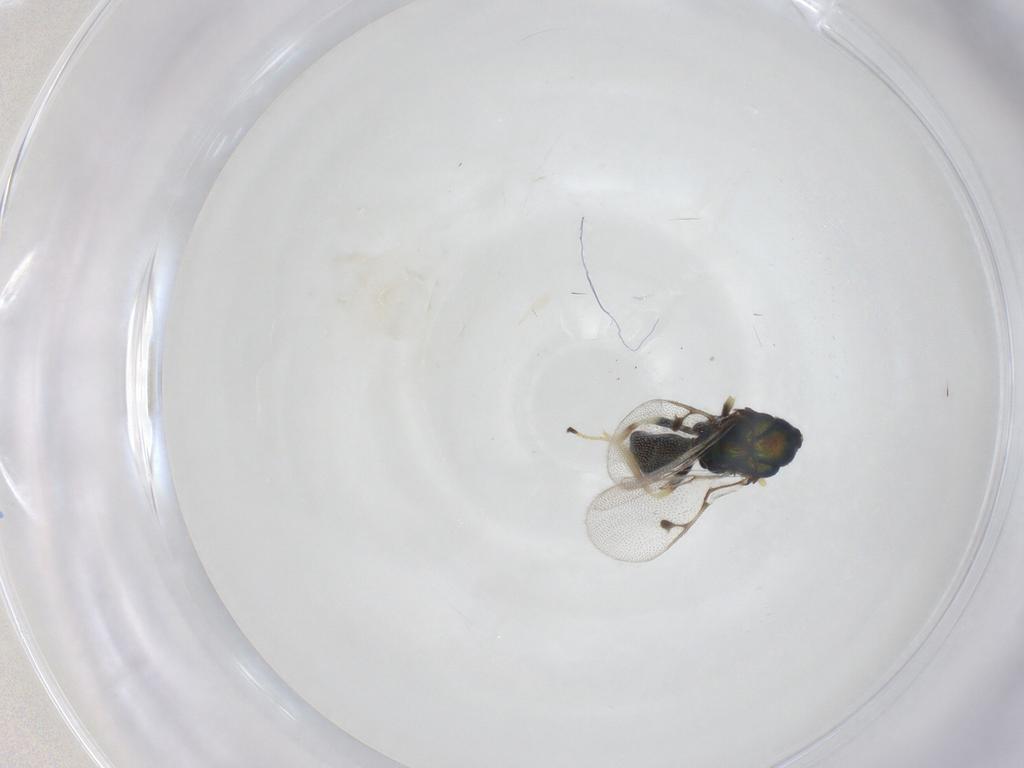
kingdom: Animalia
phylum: Arthropoda
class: Insecta
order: Hymenoptera
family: Pirenidae
